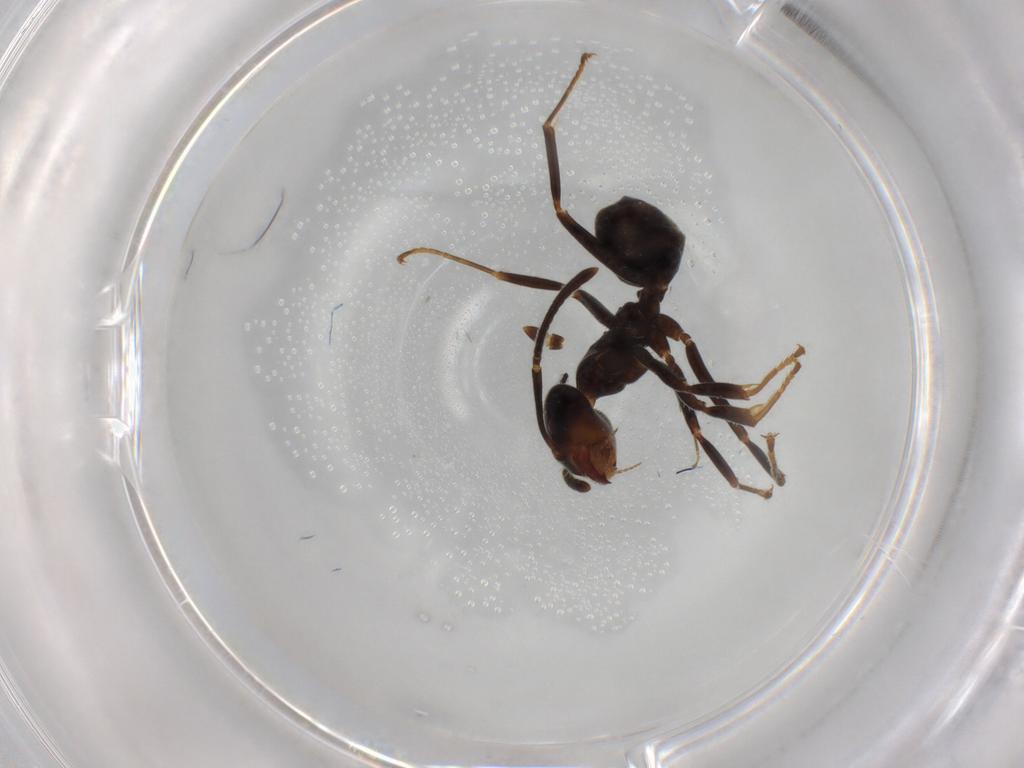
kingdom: Animalia
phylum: Arthropoda
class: Insecta
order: Hymenoptera
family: Formicidae
